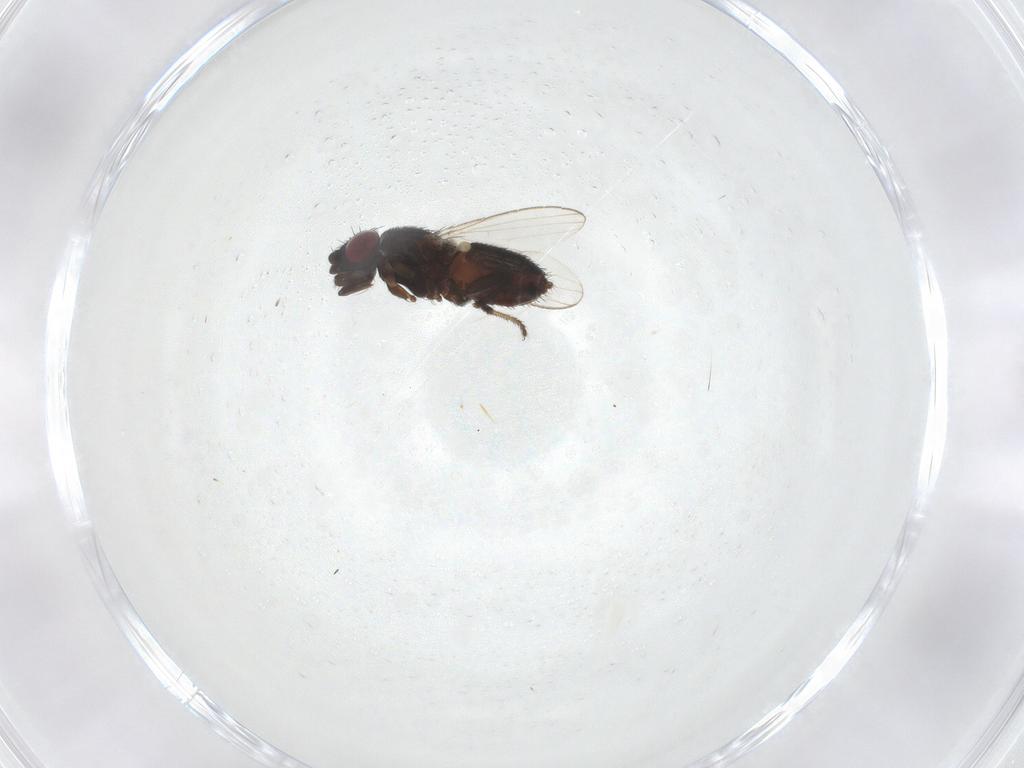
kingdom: Animalia
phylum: Arthropoda
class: Insecta
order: Diptera
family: Milichiidae
